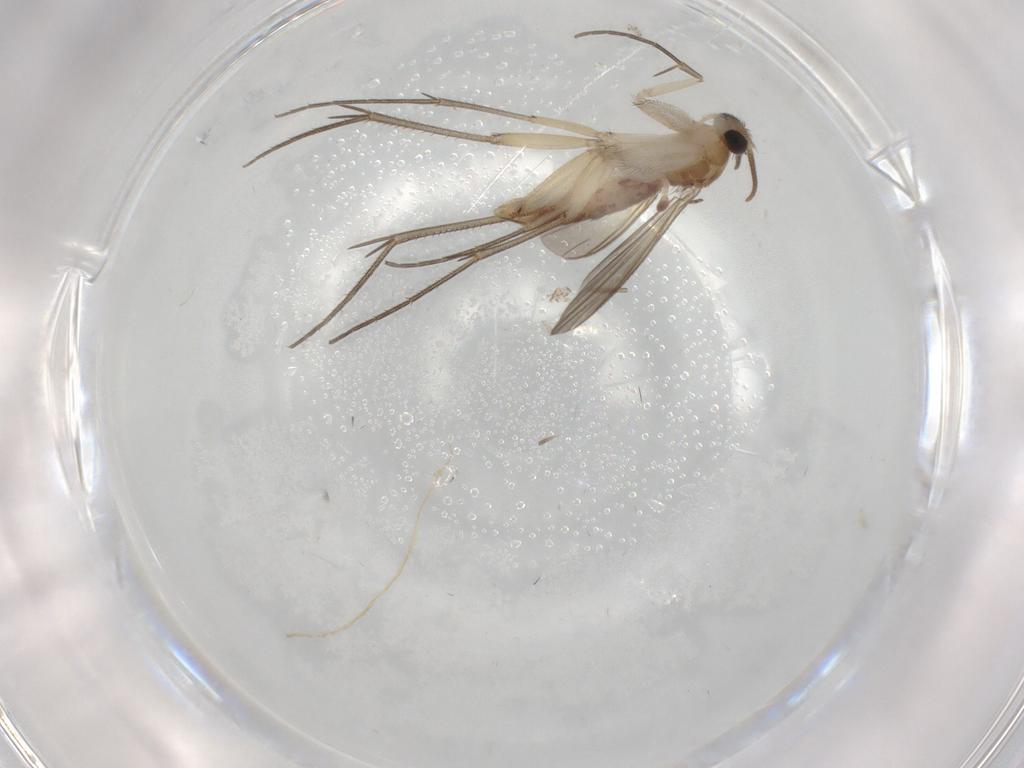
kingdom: Animalia
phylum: Arthropoda
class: Insecta
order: Diptera
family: Mycetophilidae
